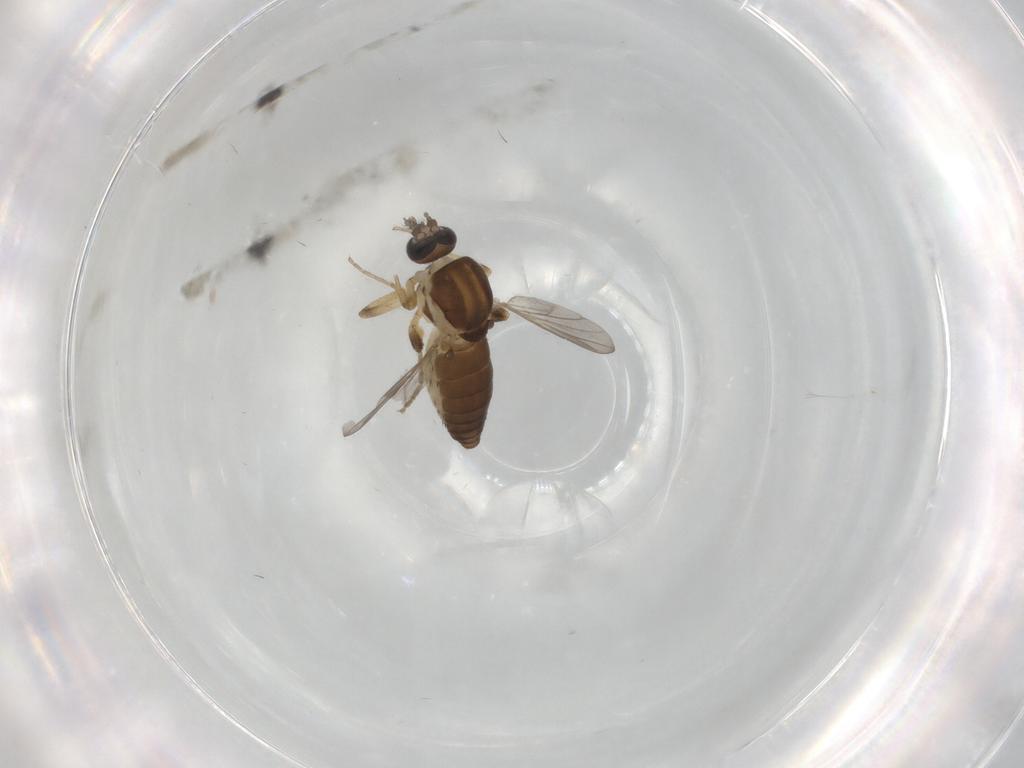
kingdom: Animalia
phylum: Arthropoda
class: Insecta
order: Diptera
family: Ceratopogonidae
